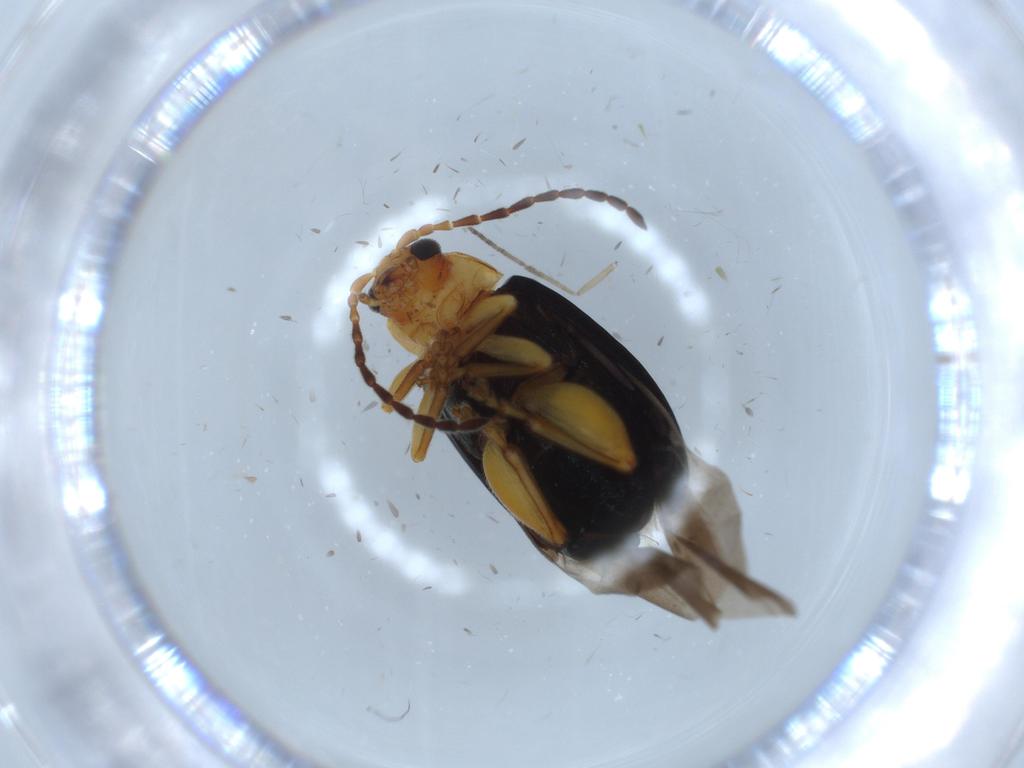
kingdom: Animalia
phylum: Arthropoda
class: Insecta
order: Coleoptera
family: Chrysomelidae
